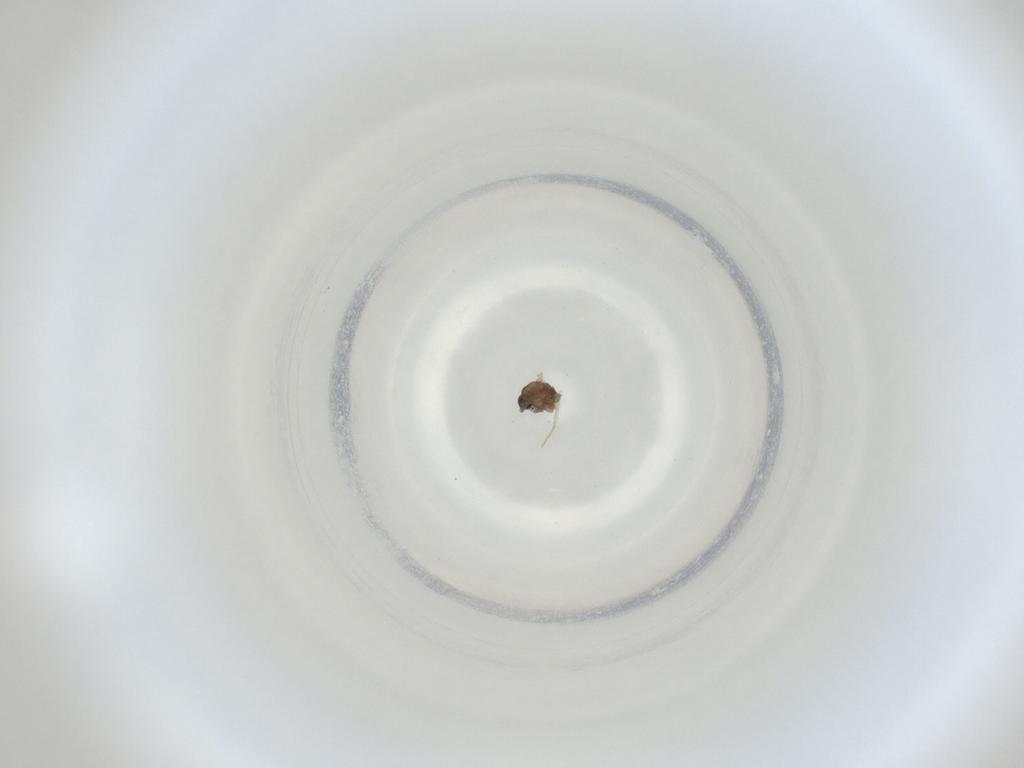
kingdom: Animalia
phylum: Arthropoda
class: Insecta
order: Diptera
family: Cecidomyiidae
